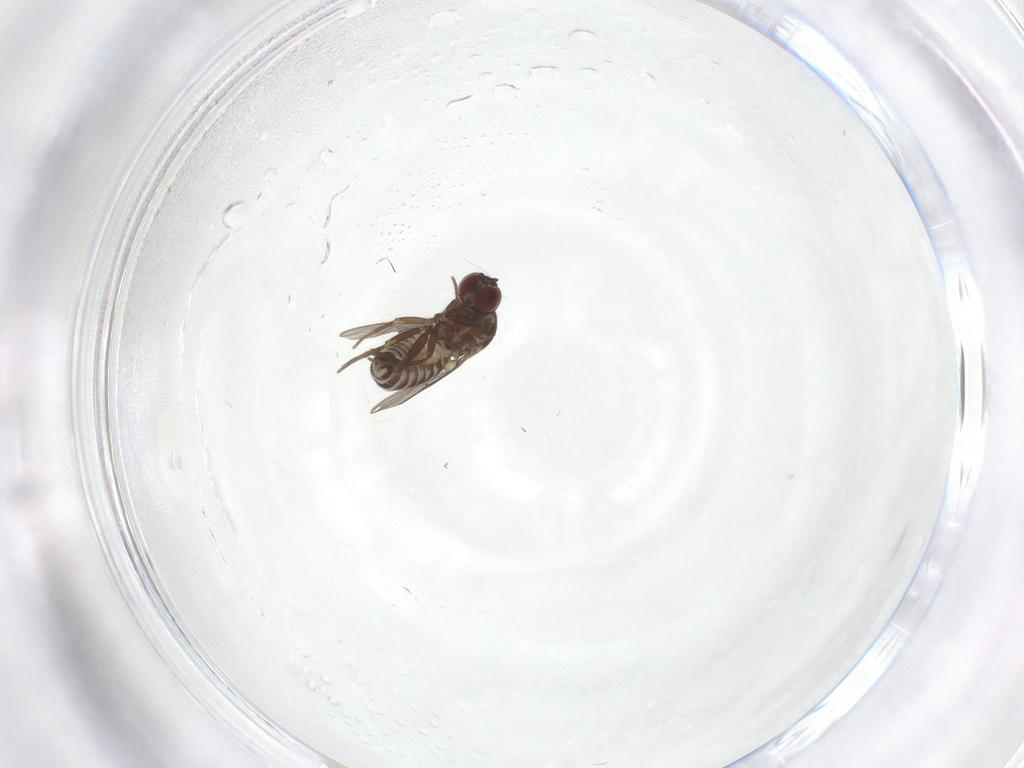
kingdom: Animalia
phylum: Arthropoda
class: Insecta
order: Diptera
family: Mythicomyiidae
